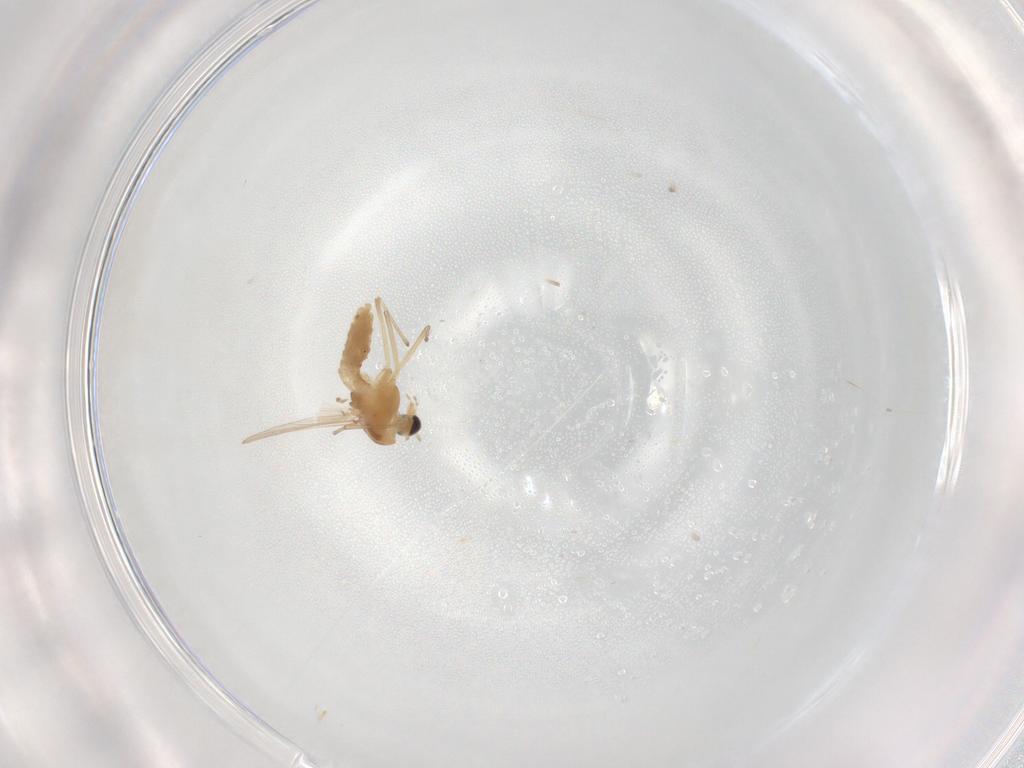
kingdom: Animalia
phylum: Arthropoda
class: Insecta
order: Diptera
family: Chironomidae
